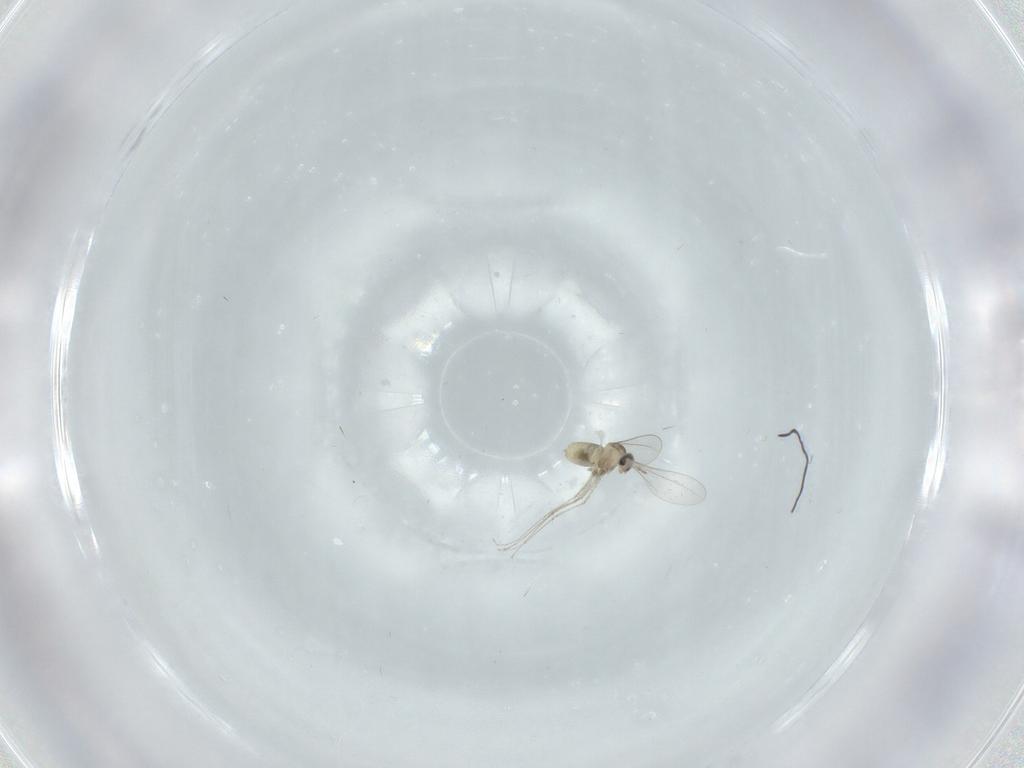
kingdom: Animalia
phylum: Arthropoda
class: Insecta
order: Diptera
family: Cecidomyiidae
